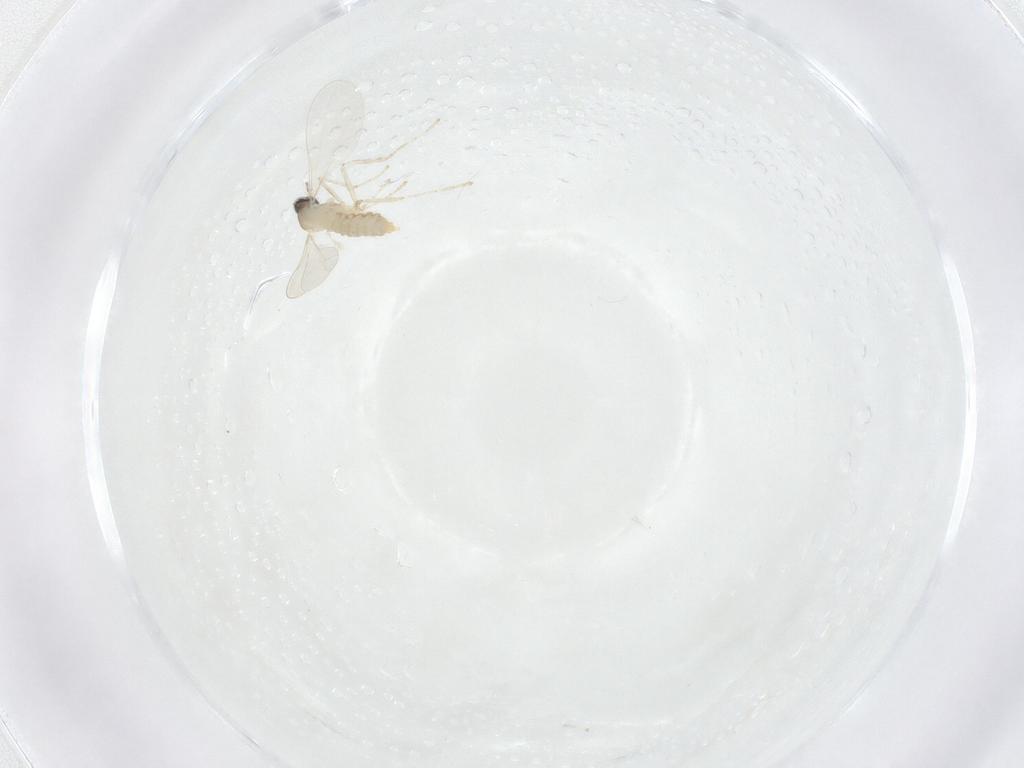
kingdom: Animalia
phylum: Arthropoda
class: Insecta
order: Diptera
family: Cecidomyiidae
